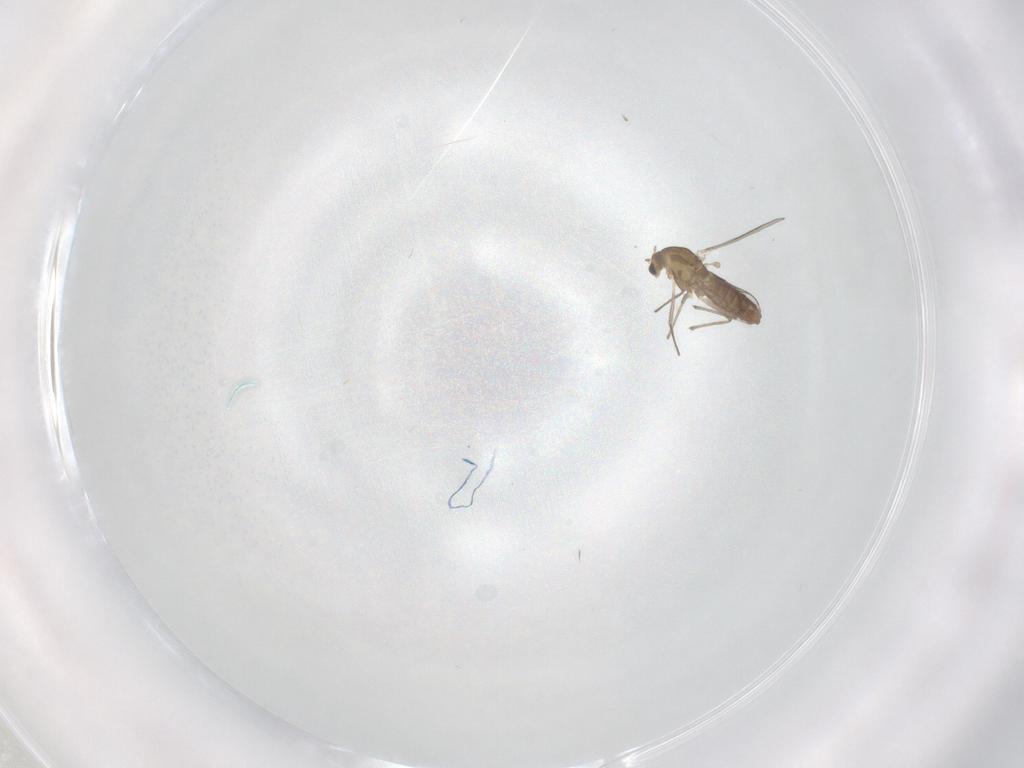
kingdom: Animalia
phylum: Arthropoda
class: Insecta
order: Diptera
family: Chironomidae
